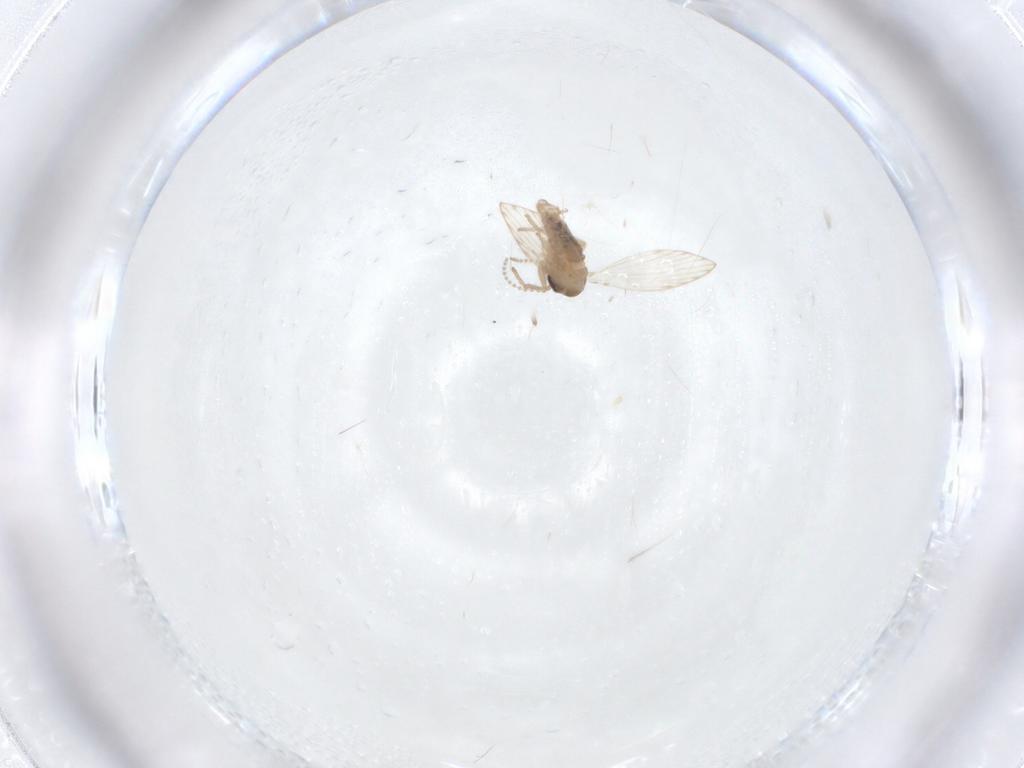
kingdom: Animalia
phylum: Arthropoda
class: Insecta
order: Diptera
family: Psychodidae
